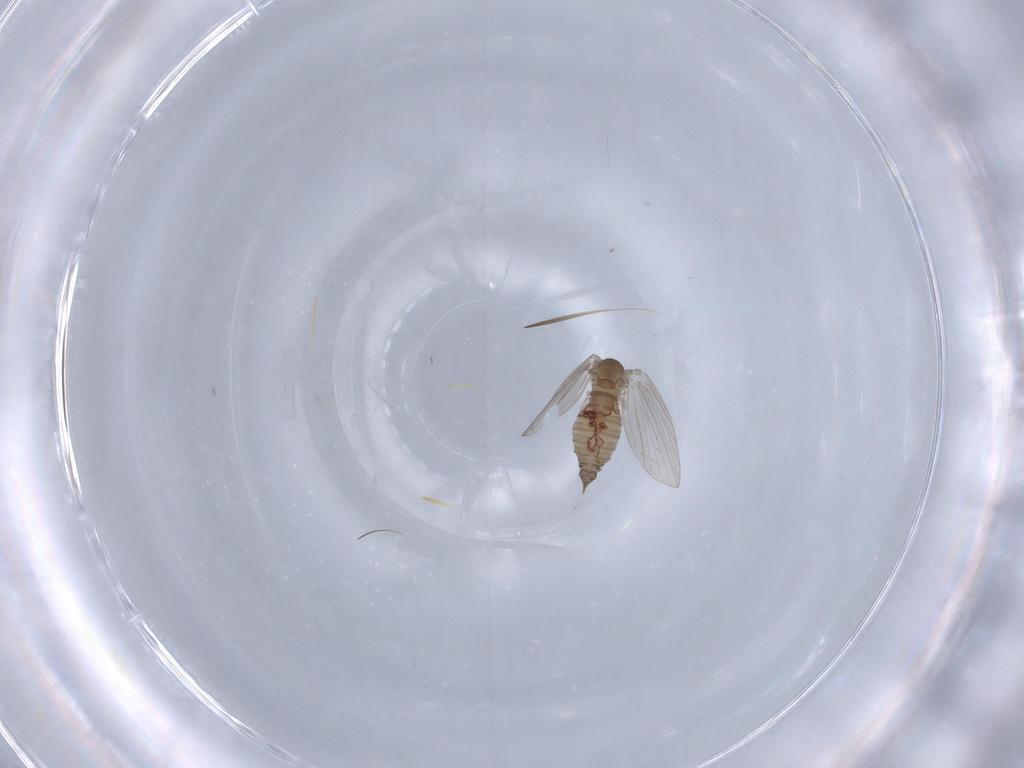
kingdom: Animalia
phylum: Arthropoda
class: Insecta
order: Diptera
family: Psychodidae
